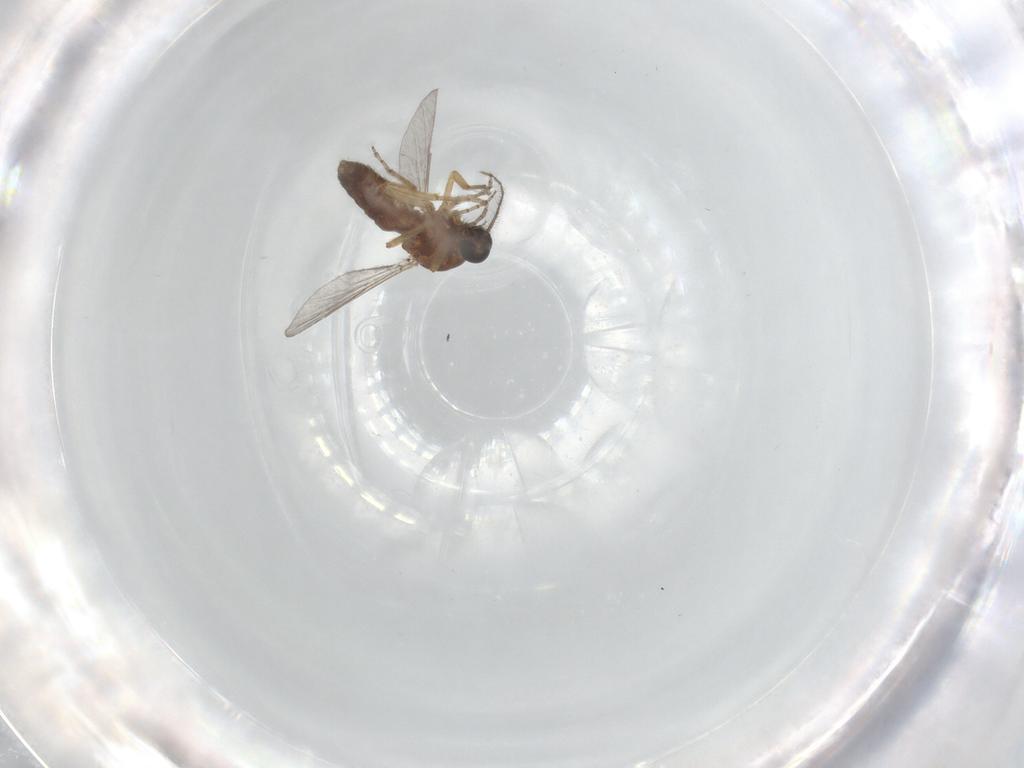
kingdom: Animalia
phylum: Arthropoda
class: Insecta
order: Diptera
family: Ceratopogonidae
